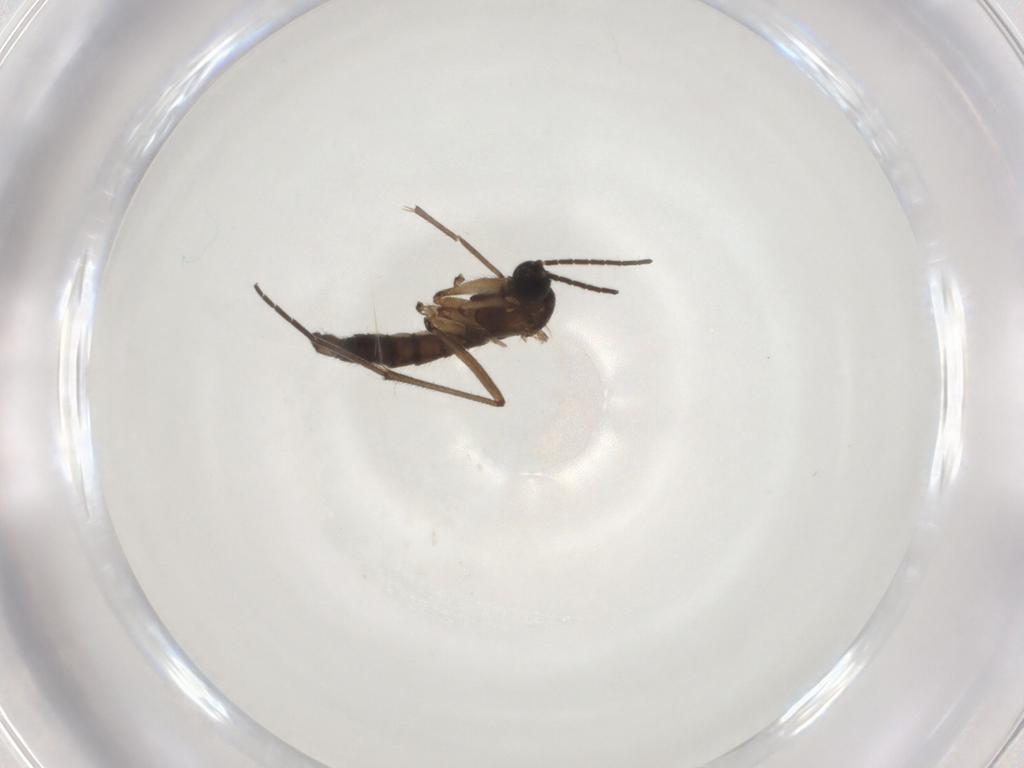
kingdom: Animalia
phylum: Arthropoda
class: Insecta
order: Diptera
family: Sciaridae
